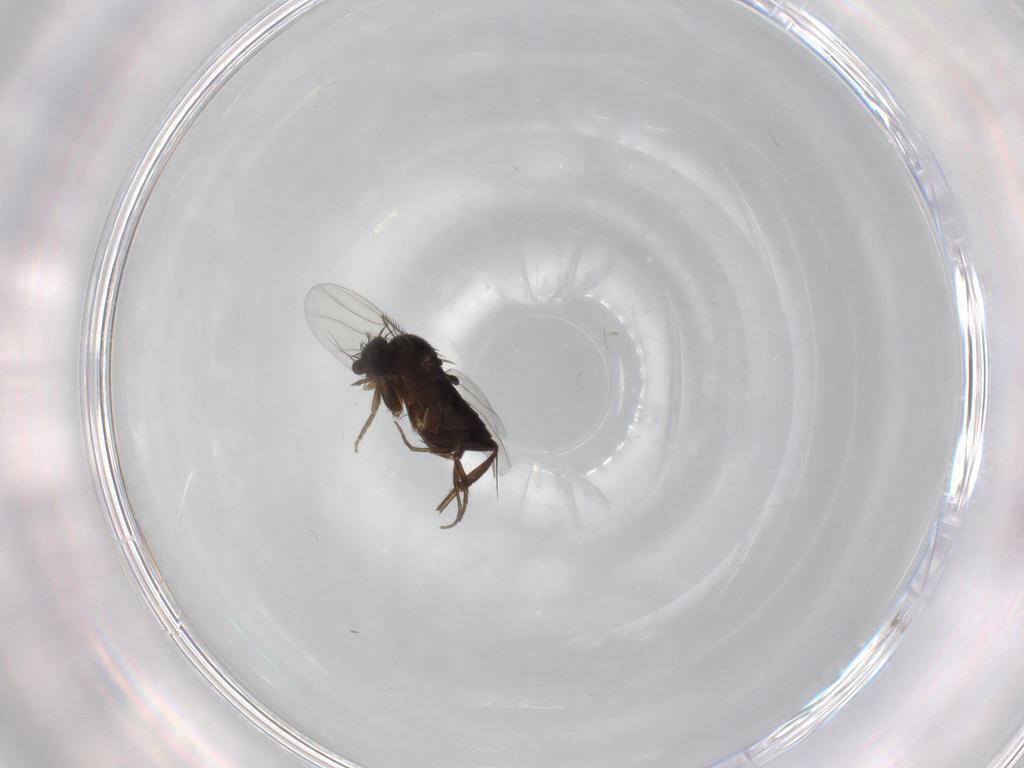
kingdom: Animalia
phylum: Arthropoda
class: Insecta
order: Diptera
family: Phoridae
